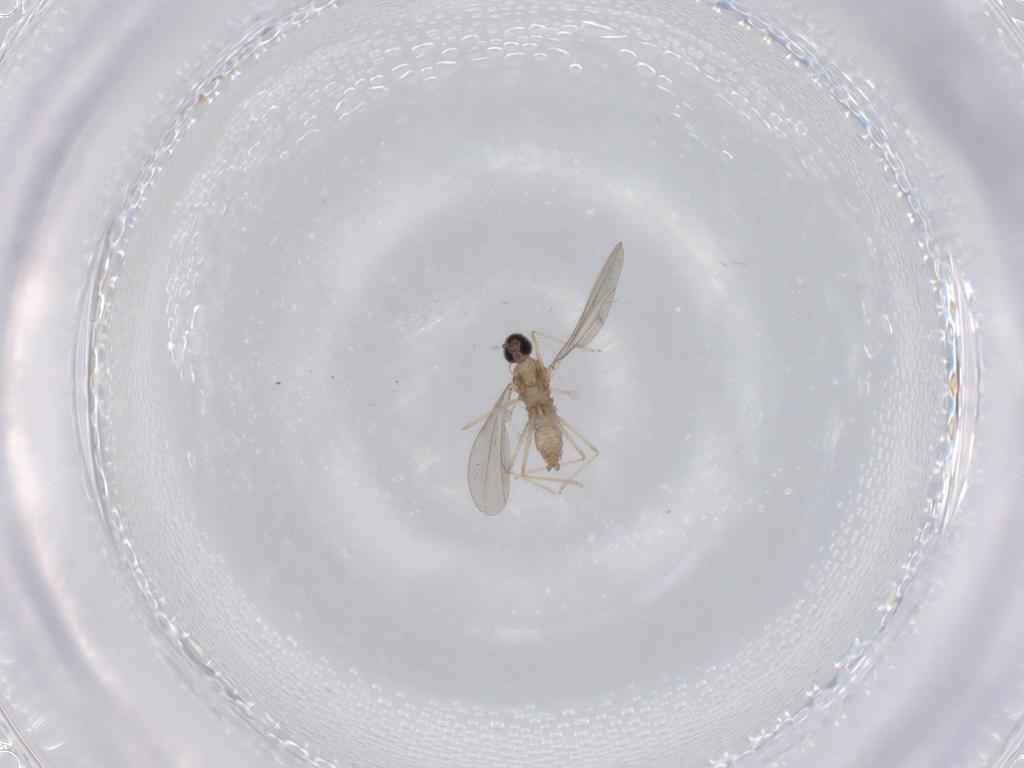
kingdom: Animalia
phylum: Arthropoda
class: Insecta
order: Diptera
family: Cecidomyiidae
